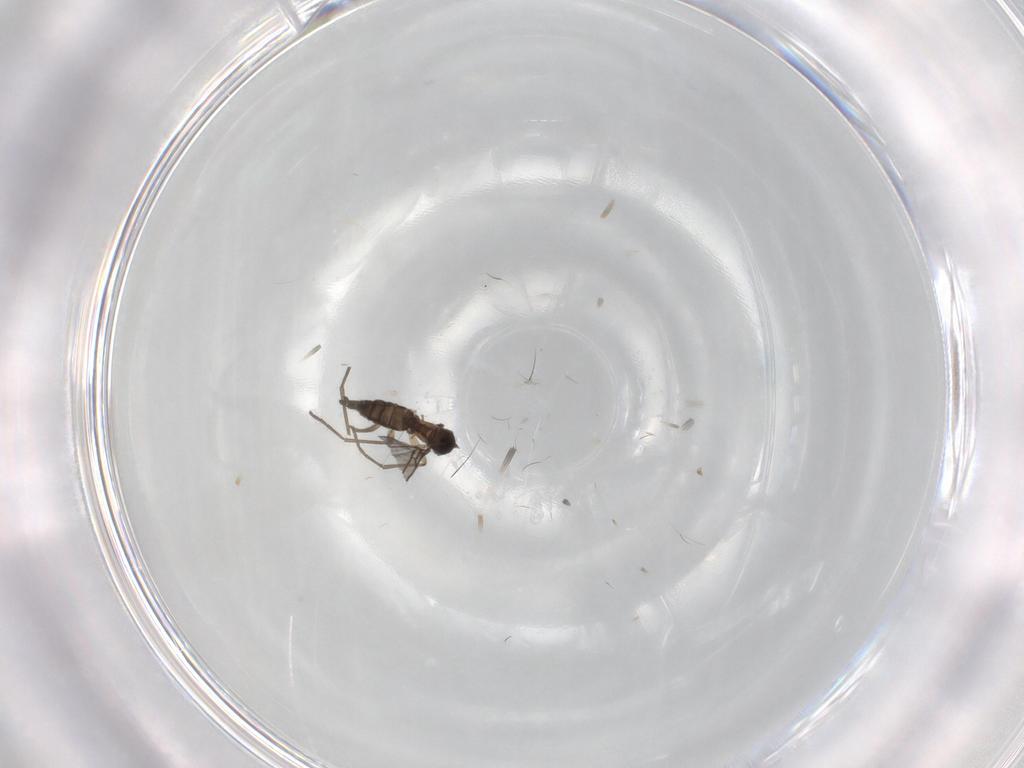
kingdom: Animalia
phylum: Arthropoda
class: Insecta
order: Diptera
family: Sciaridae
